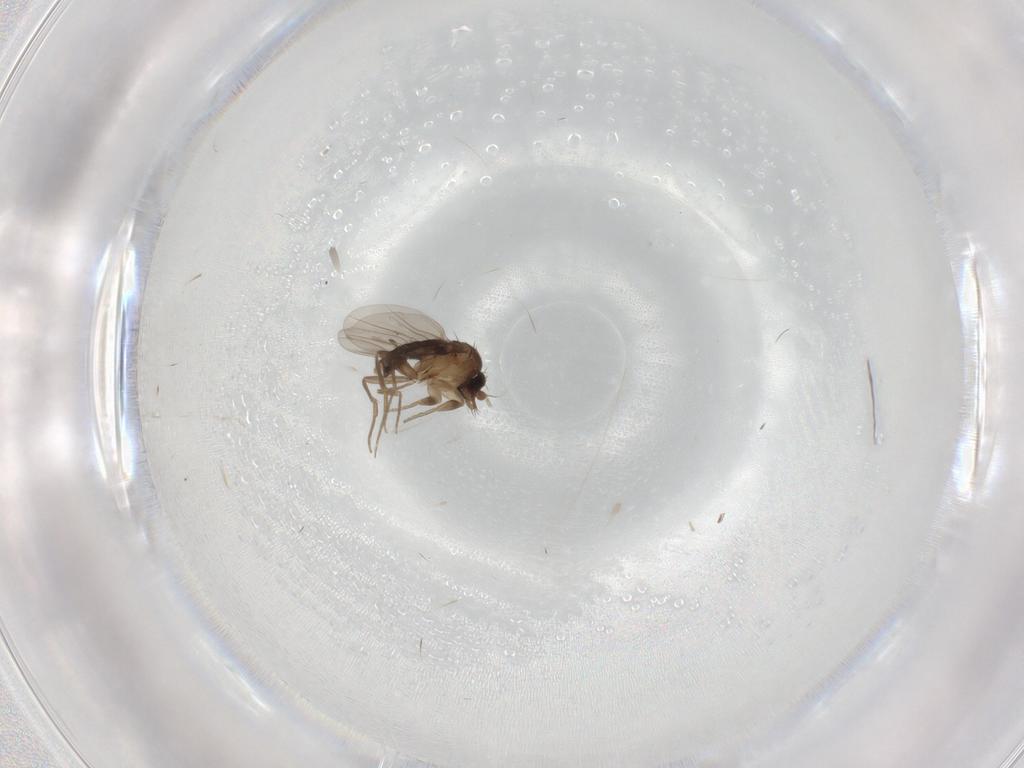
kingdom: Animalia
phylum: Arthropoda
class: Insecta
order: Diptera
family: Phoridae
